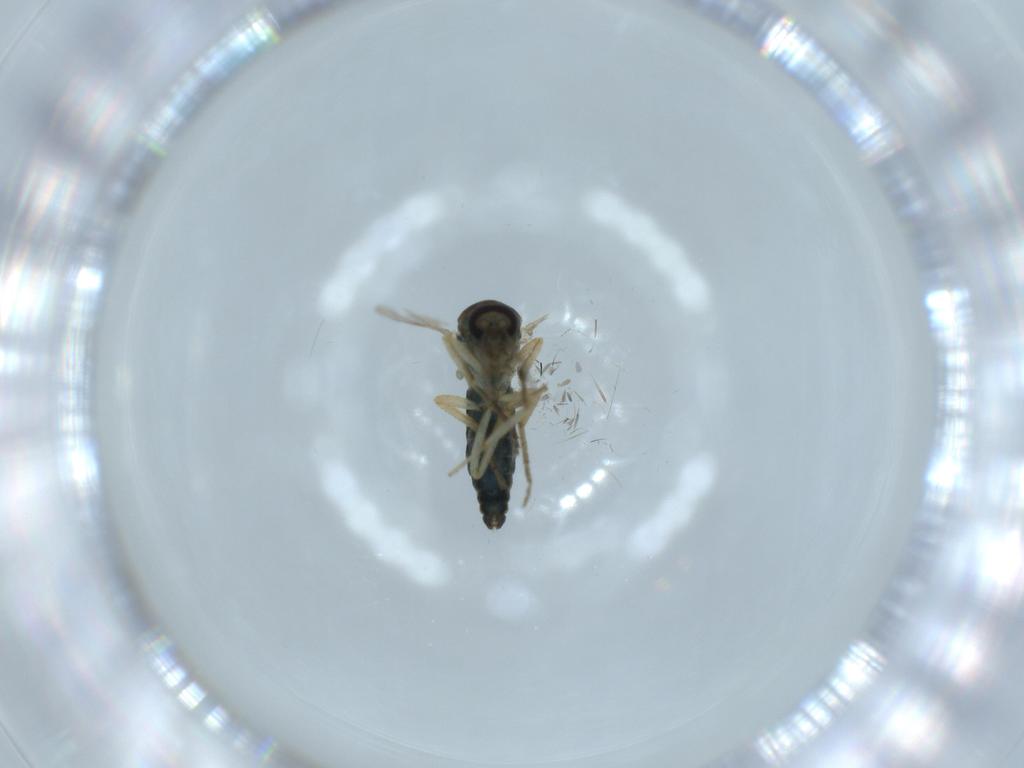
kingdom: Animalia
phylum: Arthropoda
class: Insecta
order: Diptera
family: Ceratopogonidae
